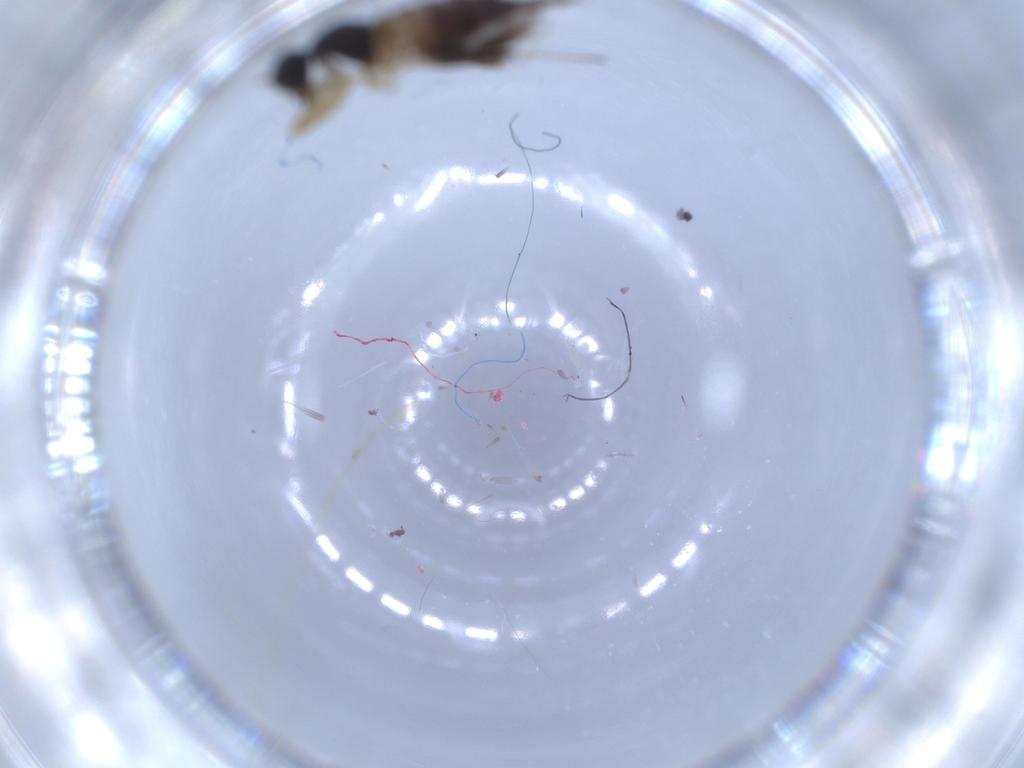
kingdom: Animalia
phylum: Arthropoda
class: Insecta
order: Diptera
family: Hybotidae
